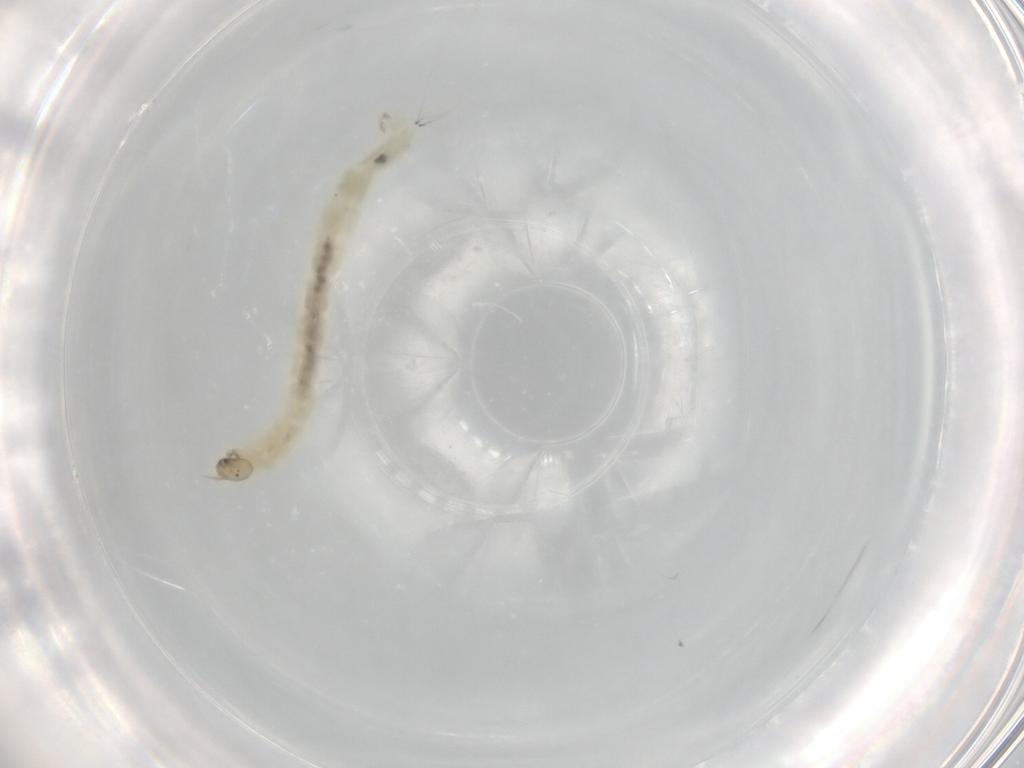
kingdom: Animalia
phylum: Arthropoda
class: Insecta
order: Diptera
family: Chironomidae
